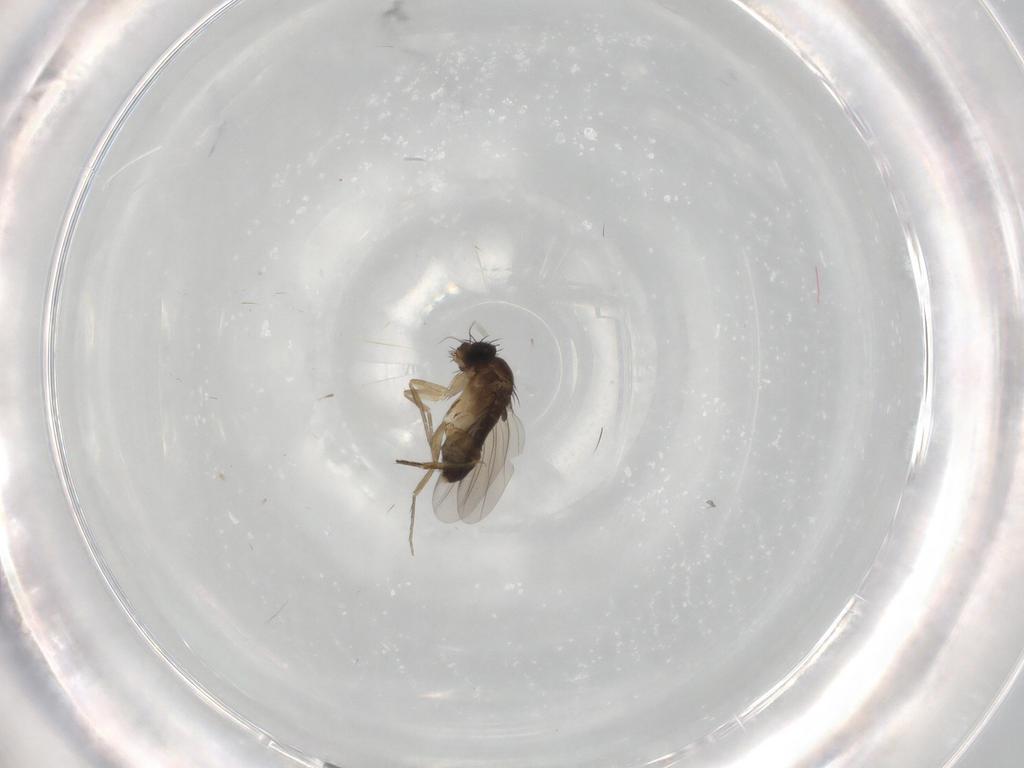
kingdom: Animalia
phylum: Arthropoda
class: Insecta
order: Diptera
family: Phoridae
